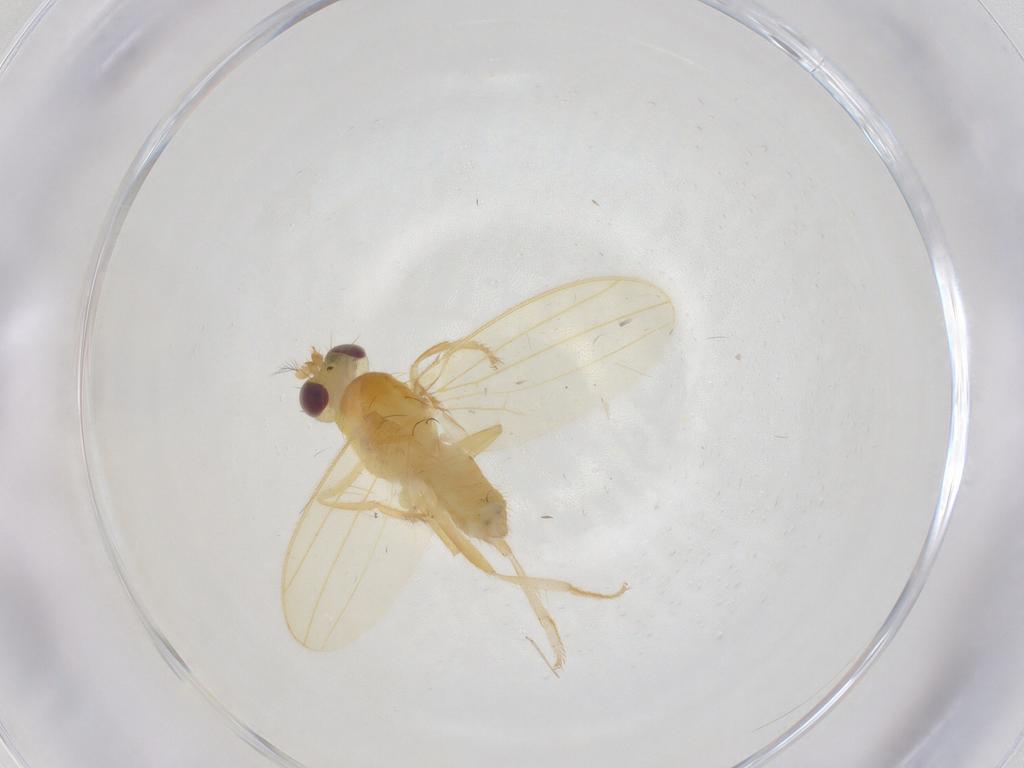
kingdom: Animalia
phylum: Arthropoda
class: Insecta
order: Diptera
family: Periscelididae
